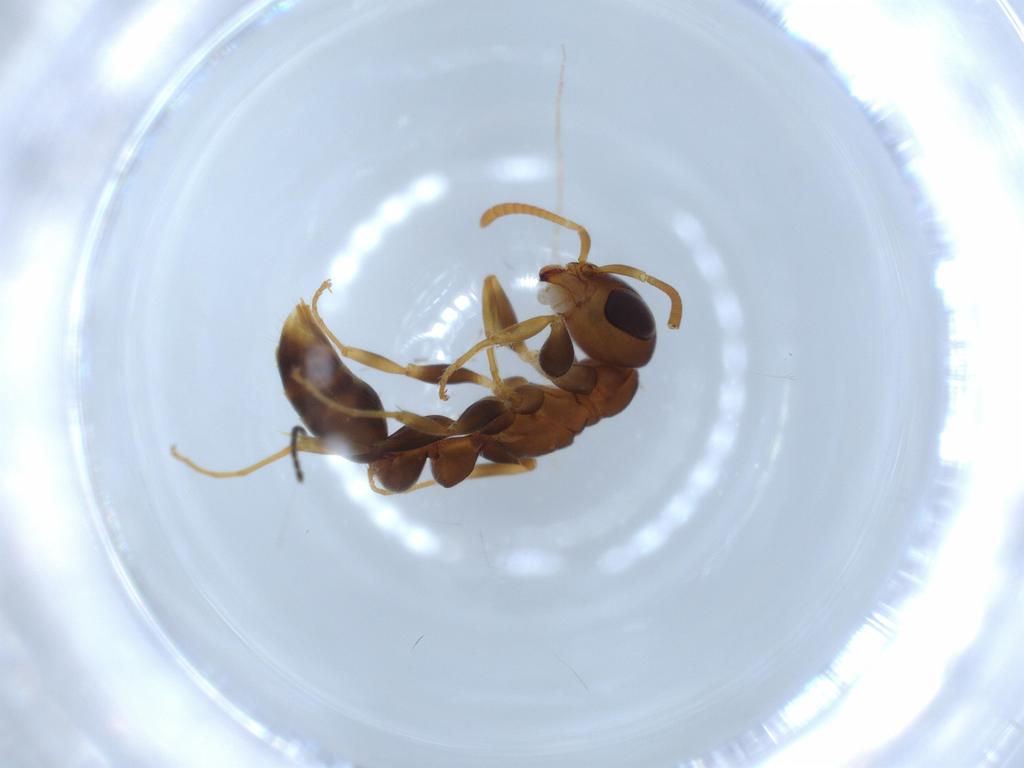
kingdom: Animalia
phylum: Arthropoda
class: Insecta
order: Hymenoptera
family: Formicidae
